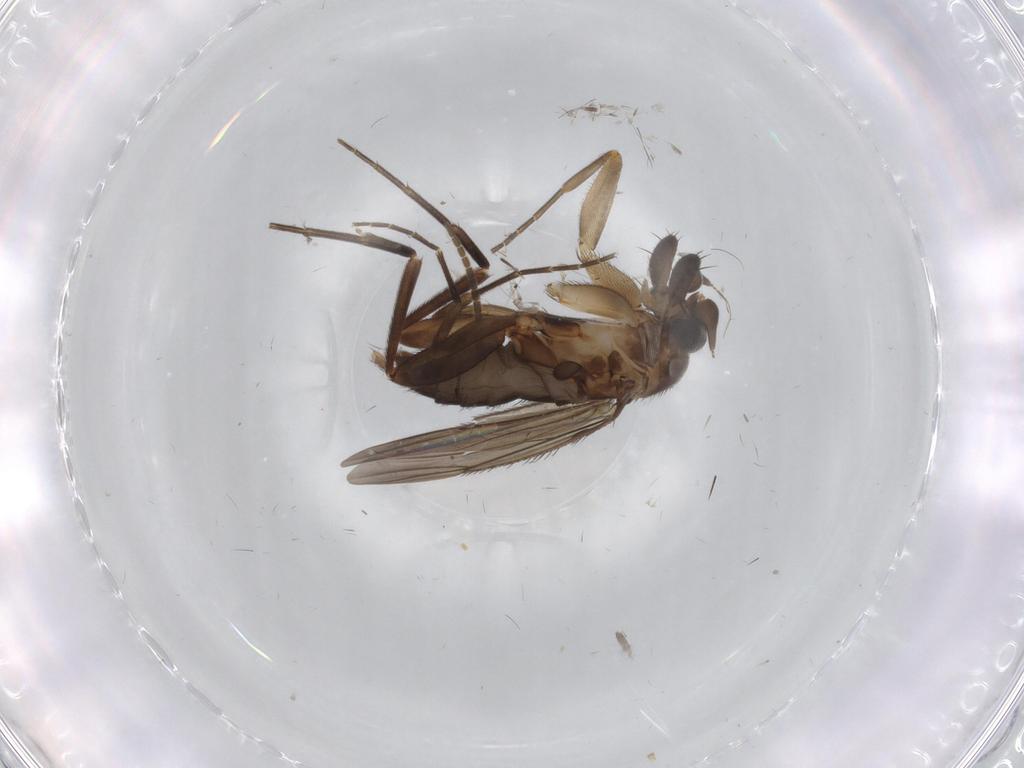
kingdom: Animalia
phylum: Arthropoda
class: Insecta
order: Diptera
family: Phoridae
